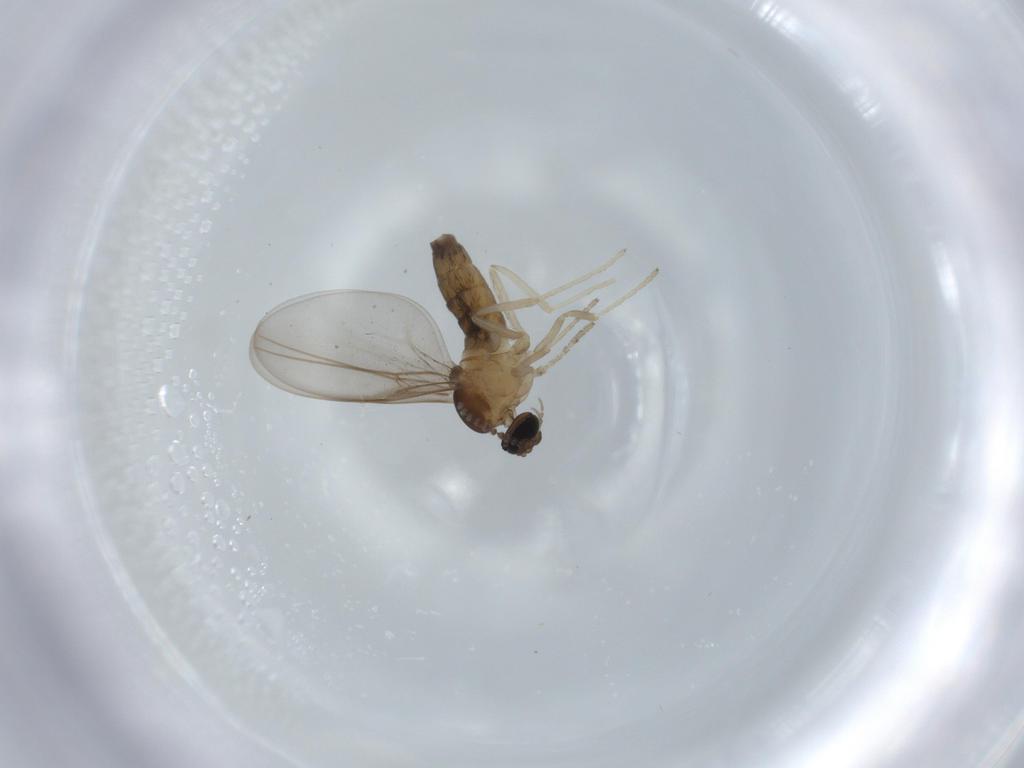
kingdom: Animalia
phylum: Arthropoda
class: Insecta
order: Diptera
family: Cecidomyiidae
